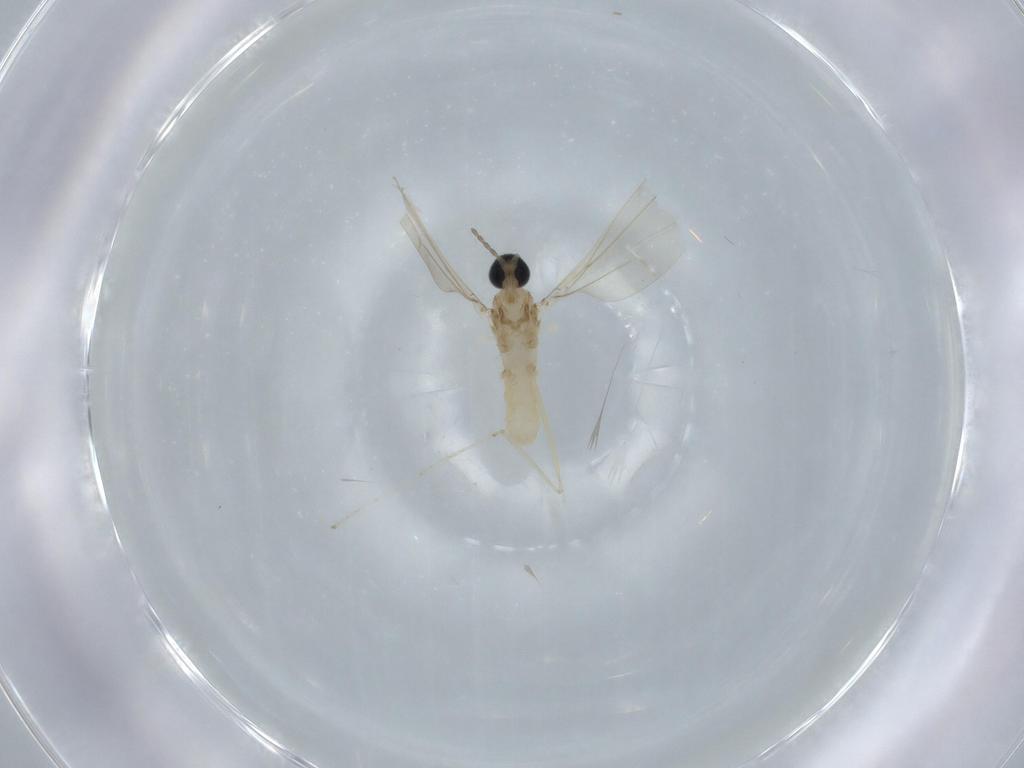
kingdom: Animalia
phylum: Arthropoda
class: Insecta
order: Diptera
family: Cecidomyiidae
